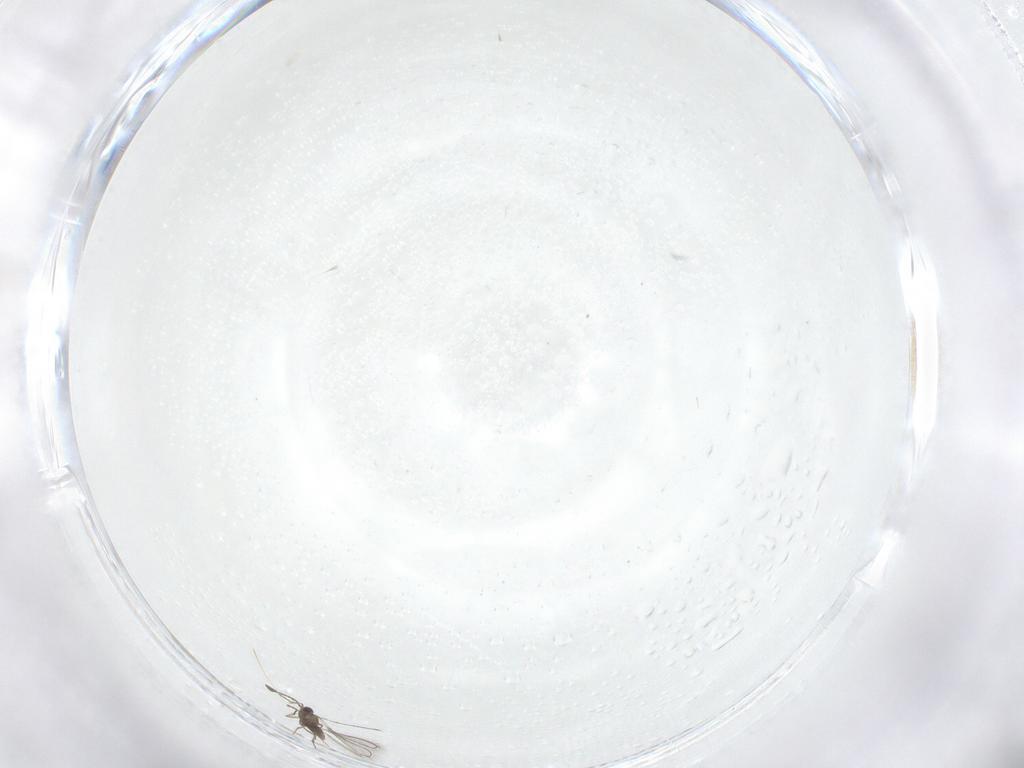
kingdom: Animalia
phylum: Arthropoda
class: Insecta
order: Hymenoptera
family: Mymaridae
